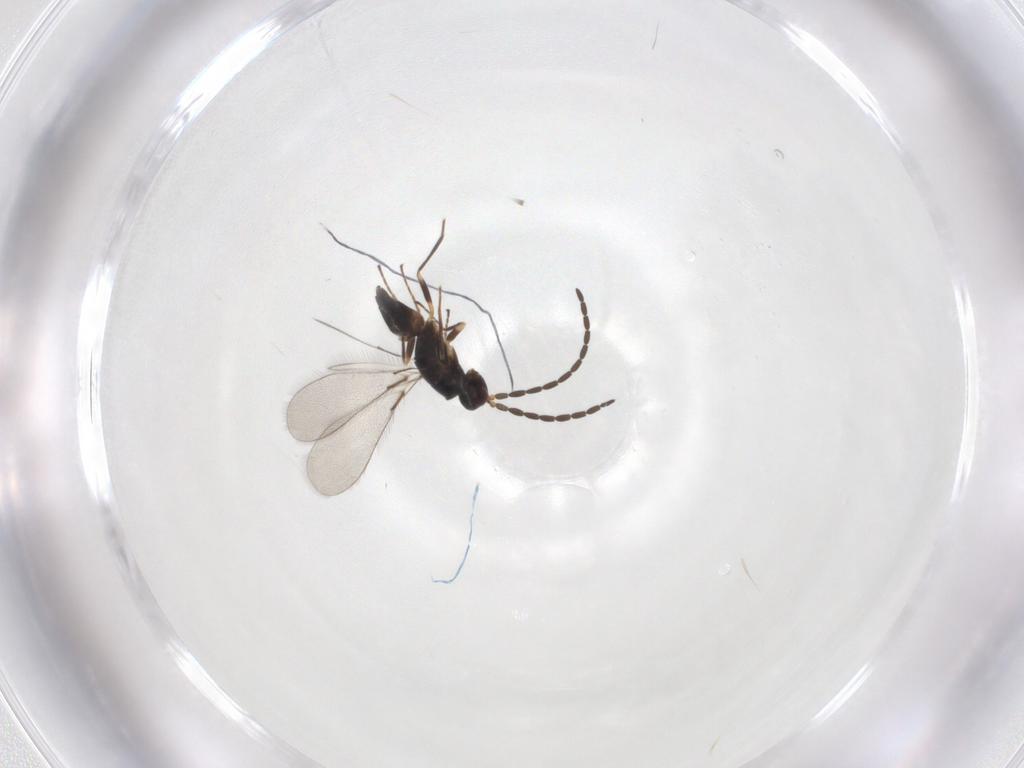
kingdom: Animalia
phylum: Arthropoda
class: Insecta
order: Hymenoptera
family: Mymaridae
